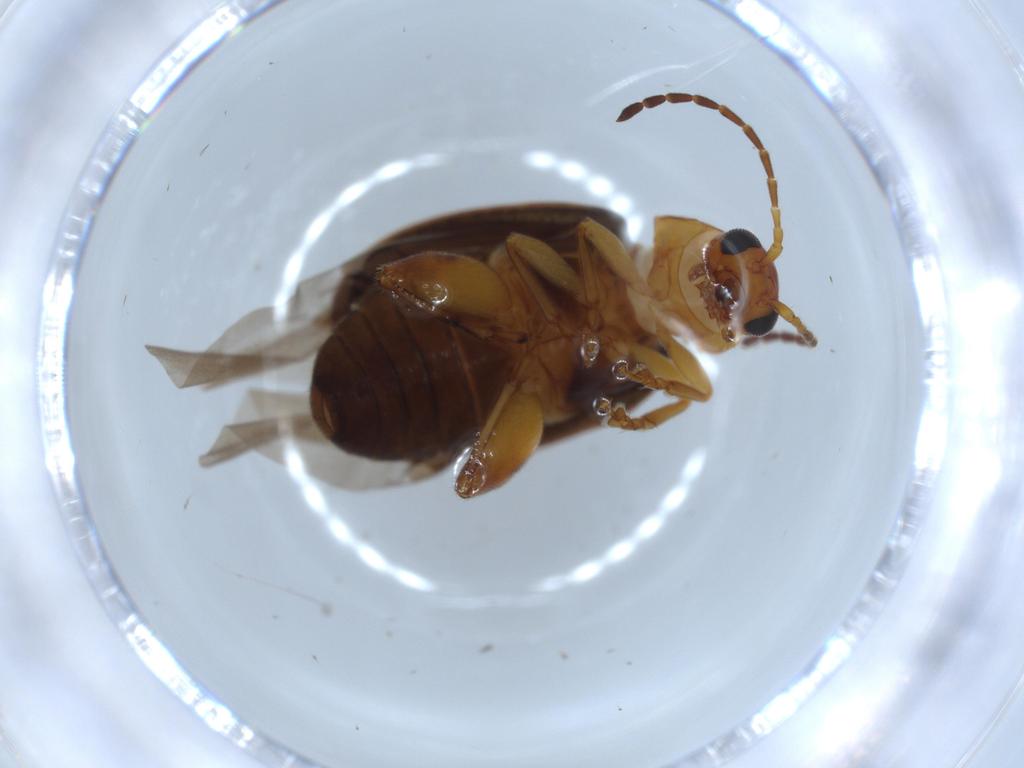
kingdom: Animalia
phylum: Arthropoda
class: Insecta
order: Coleoptera
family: Chrysomelidae
